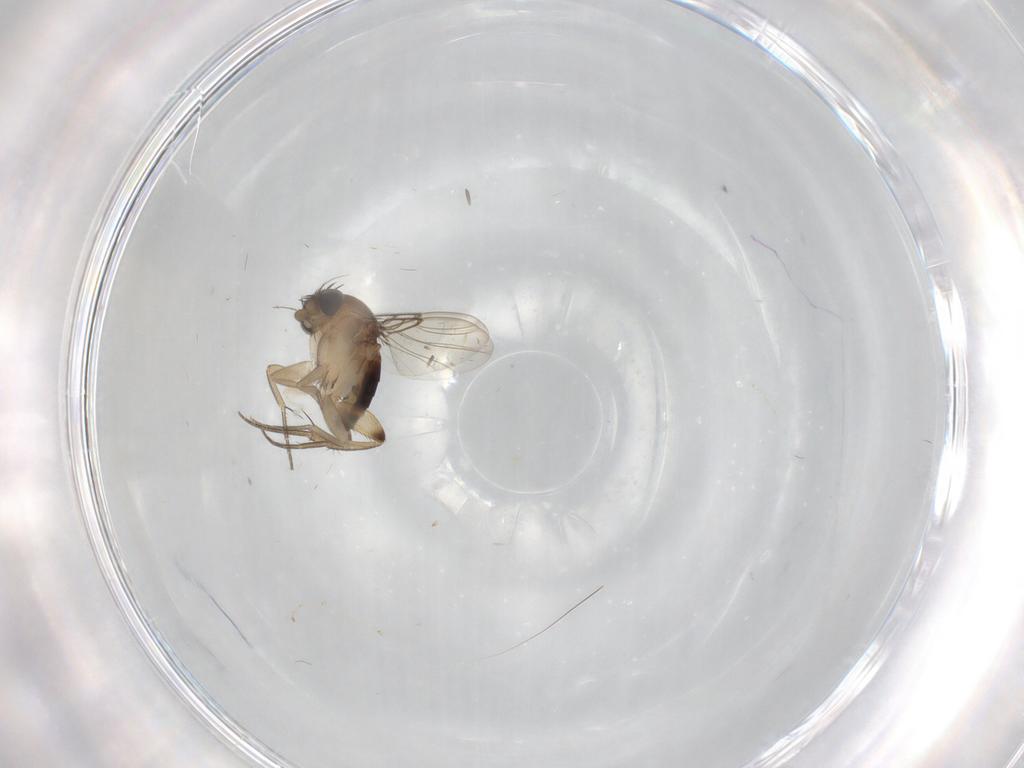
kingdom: Animalia
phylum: Arthropoda
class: Insecta
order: Diptera
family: Phoridae
